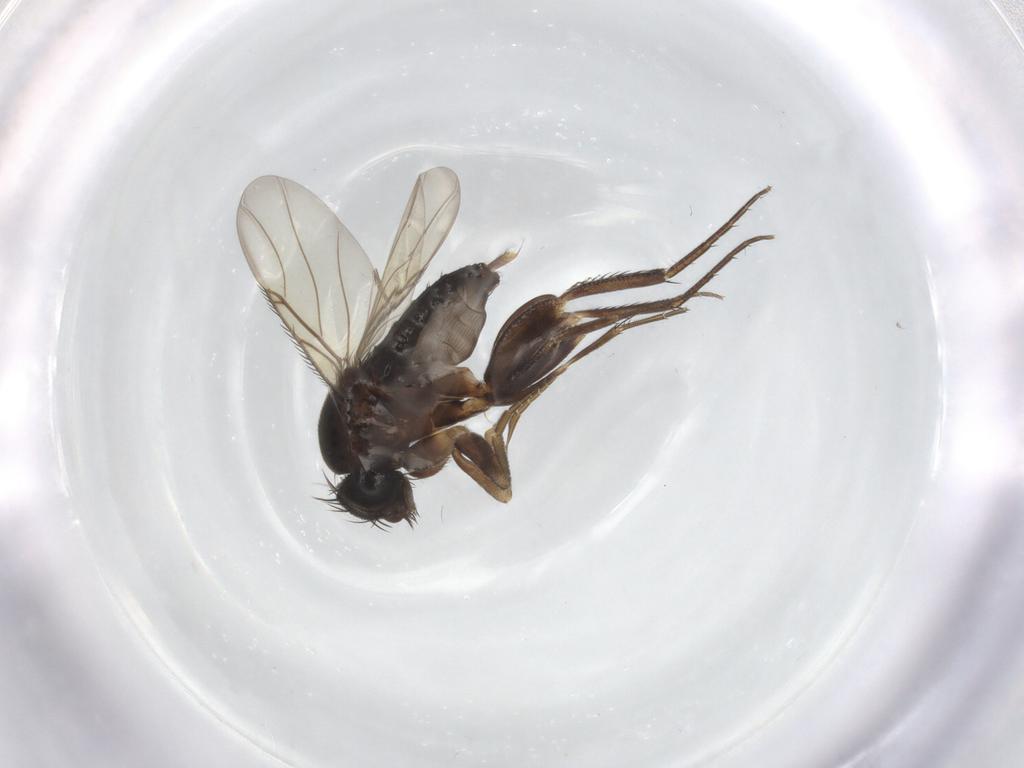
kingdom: Animalia
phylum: Arthropoda
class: Insecta
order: Diptera
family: Phoridae
